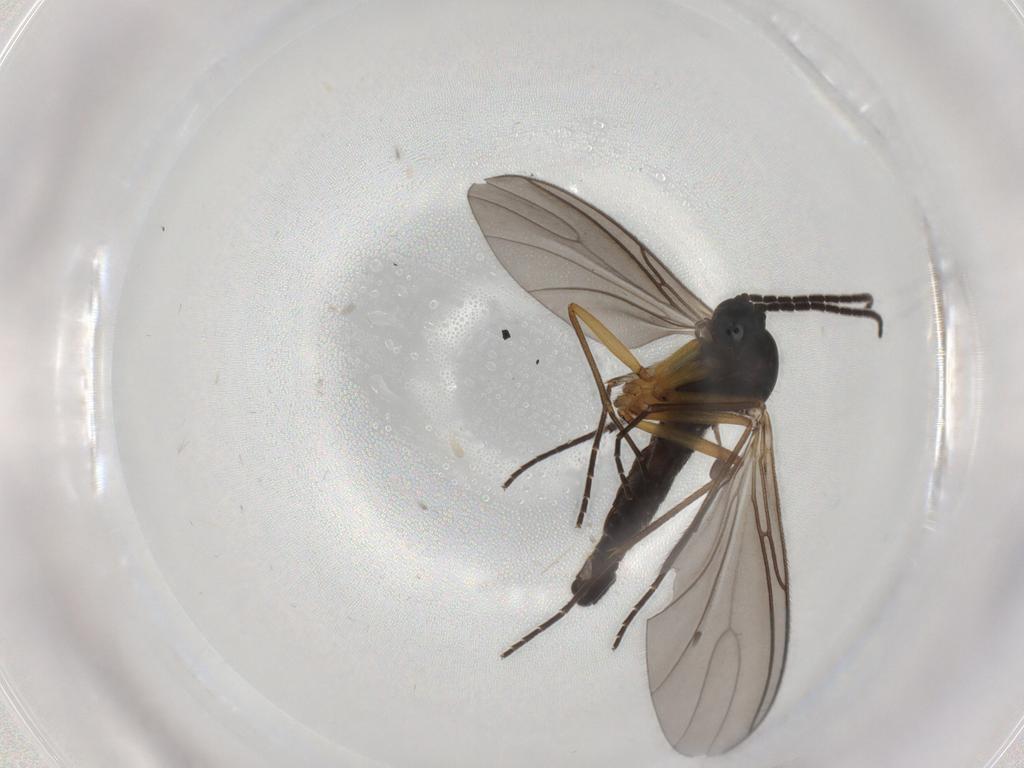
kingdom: Animalia
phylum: Arthropoda
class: Insecta
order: Diptera
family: Sciaridae
